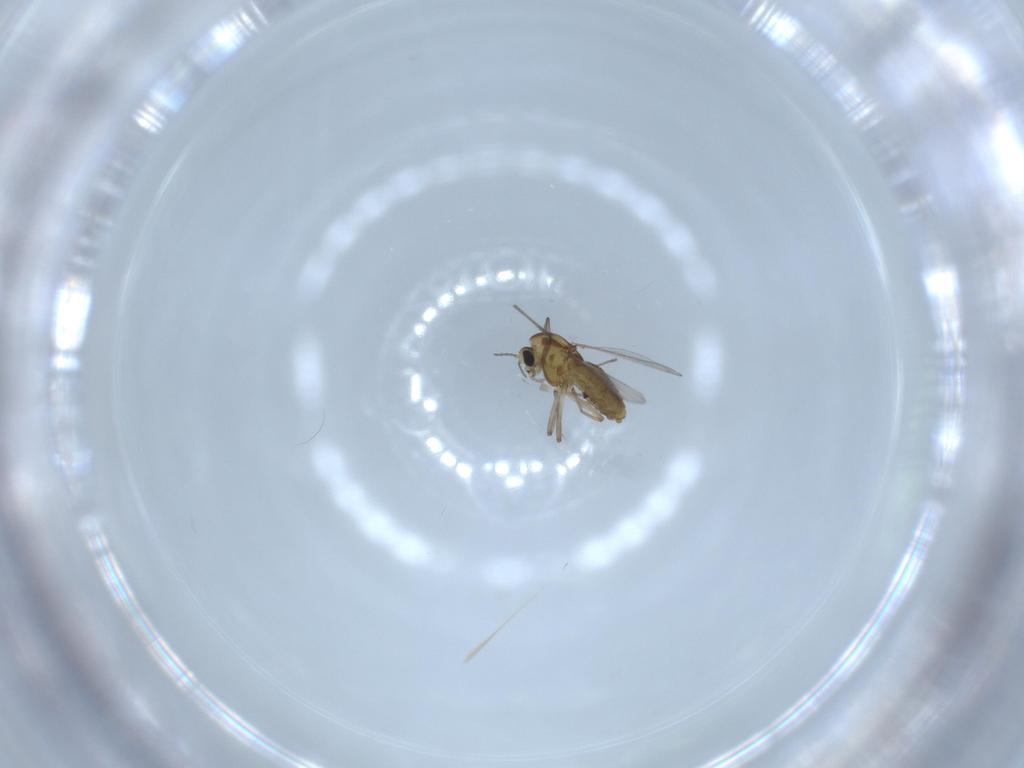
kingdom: Animalia
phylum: Arthropoda
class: Insecta
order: Diptera
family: Chironomidae
